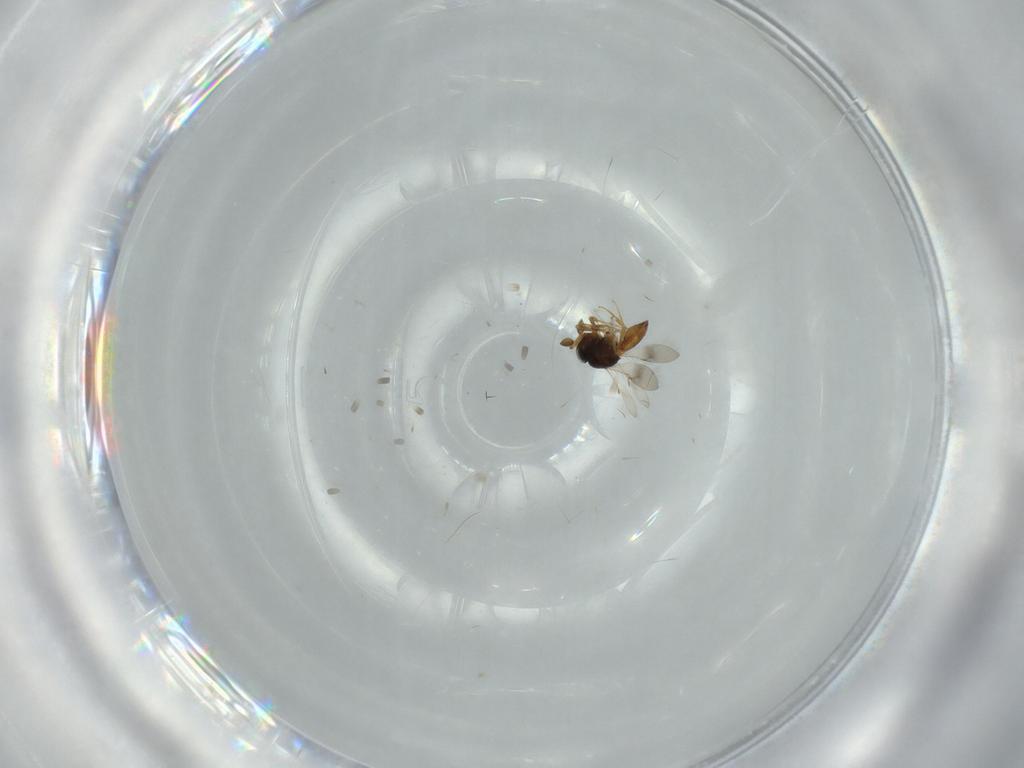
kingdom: Animalia
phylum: Arthropoda
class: Insecta
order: Hymenoptera
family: Scelionidae
